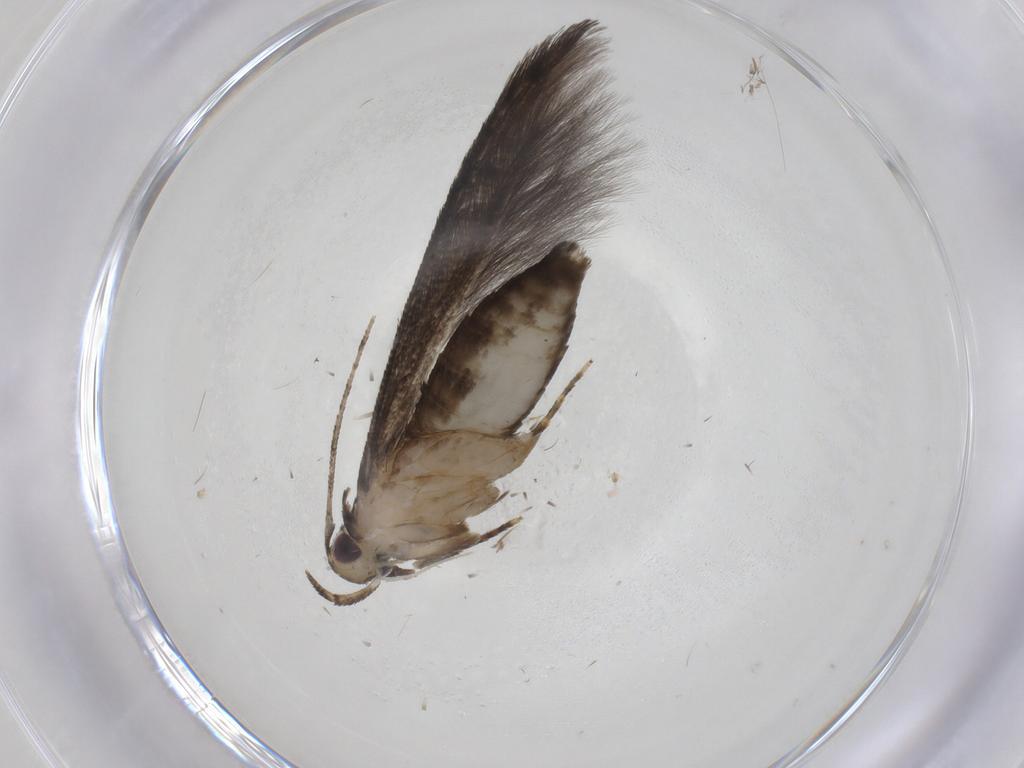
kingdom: Animalia
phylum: Arthropoda
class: Insecta
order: Lepidoptera
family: Cosmopterigidae
